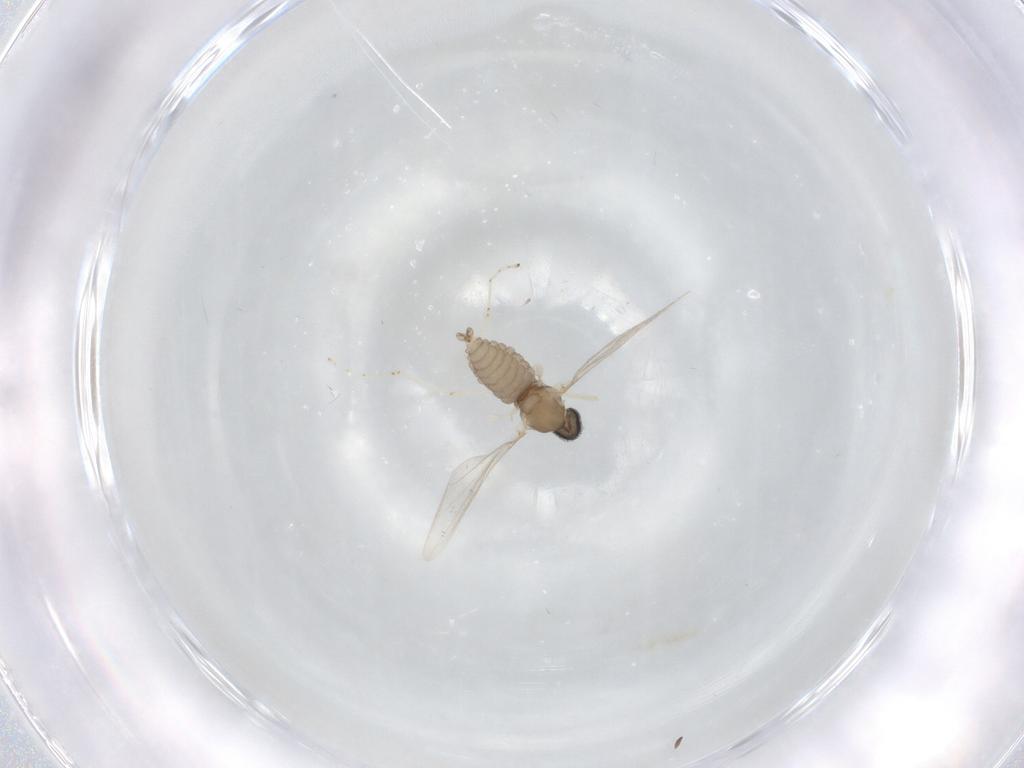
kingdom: Animalia
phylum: Arthropoda
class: Insecta
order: Diptera
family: Cecidomyiidae
